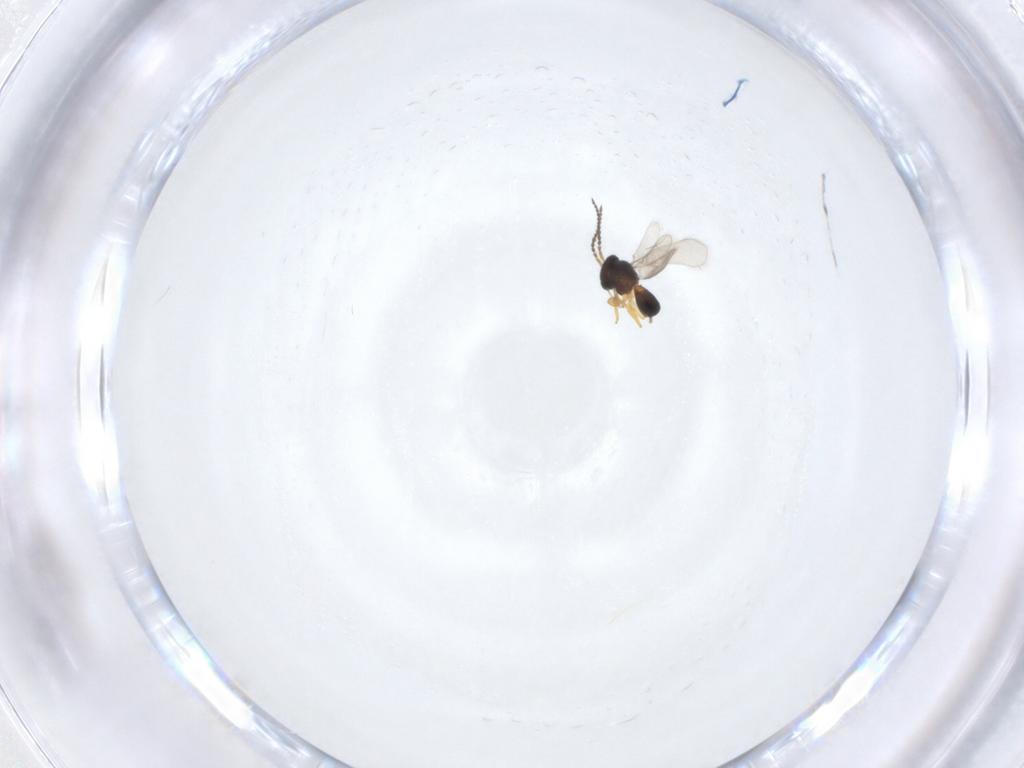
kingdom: Animalia
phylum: Arthropoda
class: Insecta
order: Hymenoptera
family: Scelionidae
